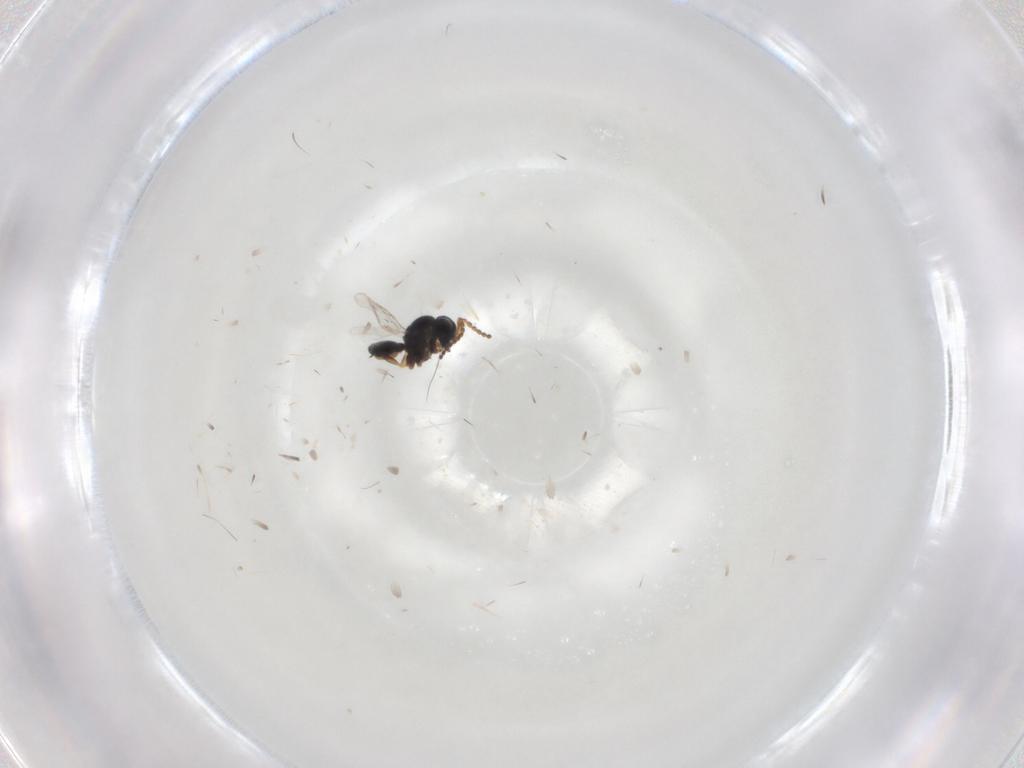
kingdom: Animalia
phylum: Arthropoda
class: Insecta
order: Hymenoptera
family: Scelionidae
